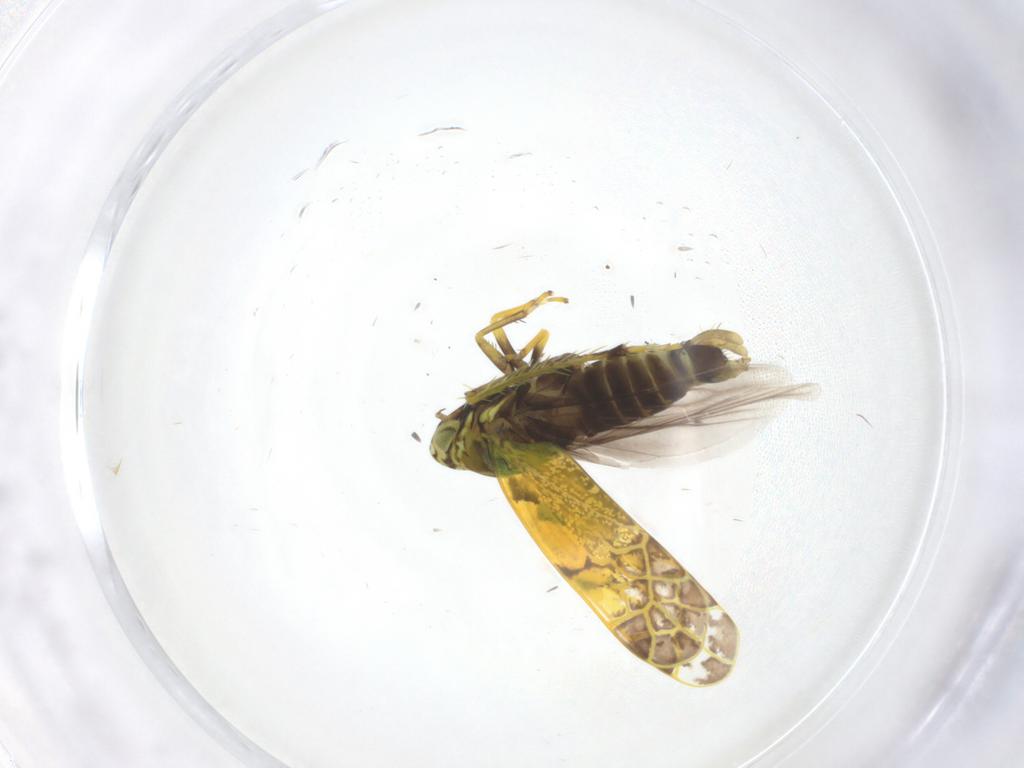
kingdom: Animalia
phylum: Arthropoda
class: Insecta
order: Hemiptera
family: Cicadellidae
